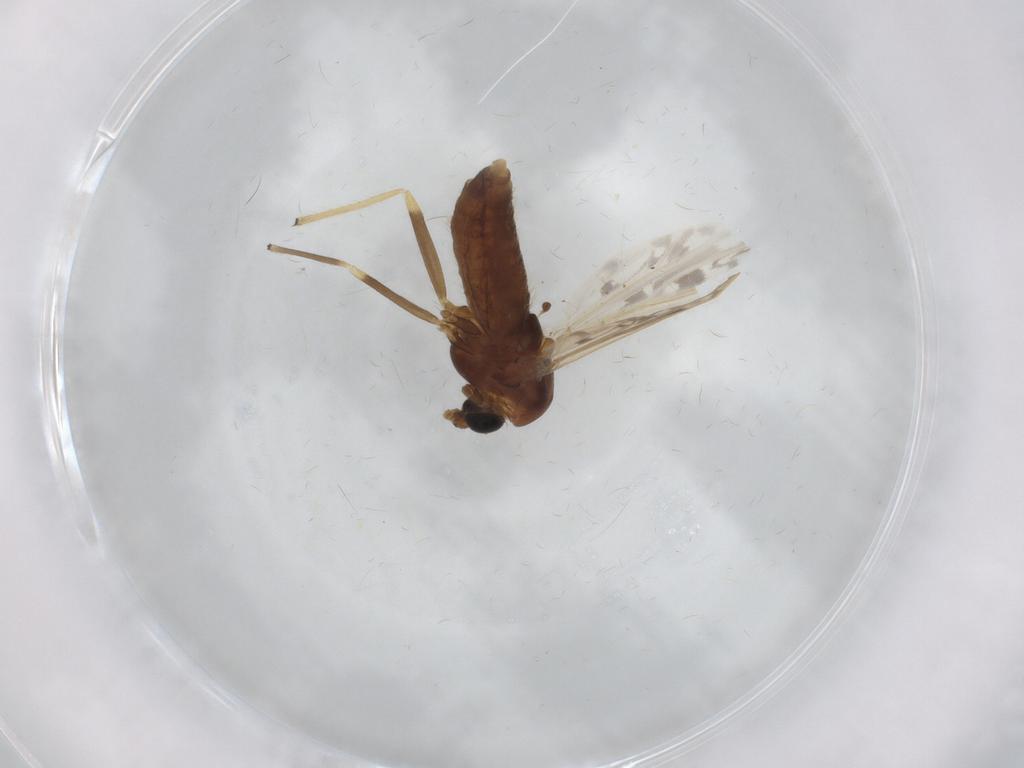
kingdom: Animalia
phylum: Arthropoda
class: Insecta
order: Diptera
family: Chironomidae
